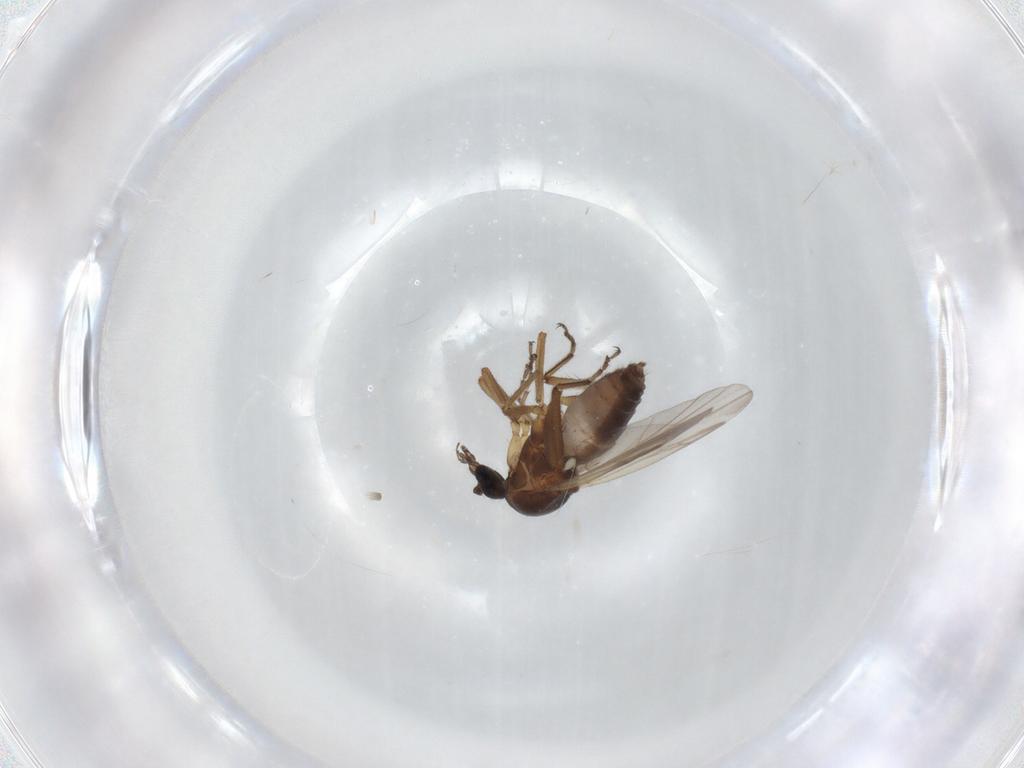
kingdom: Animalia
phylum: Arthropoda
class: Insecta
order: Diptera
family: Ceratopogonidae
